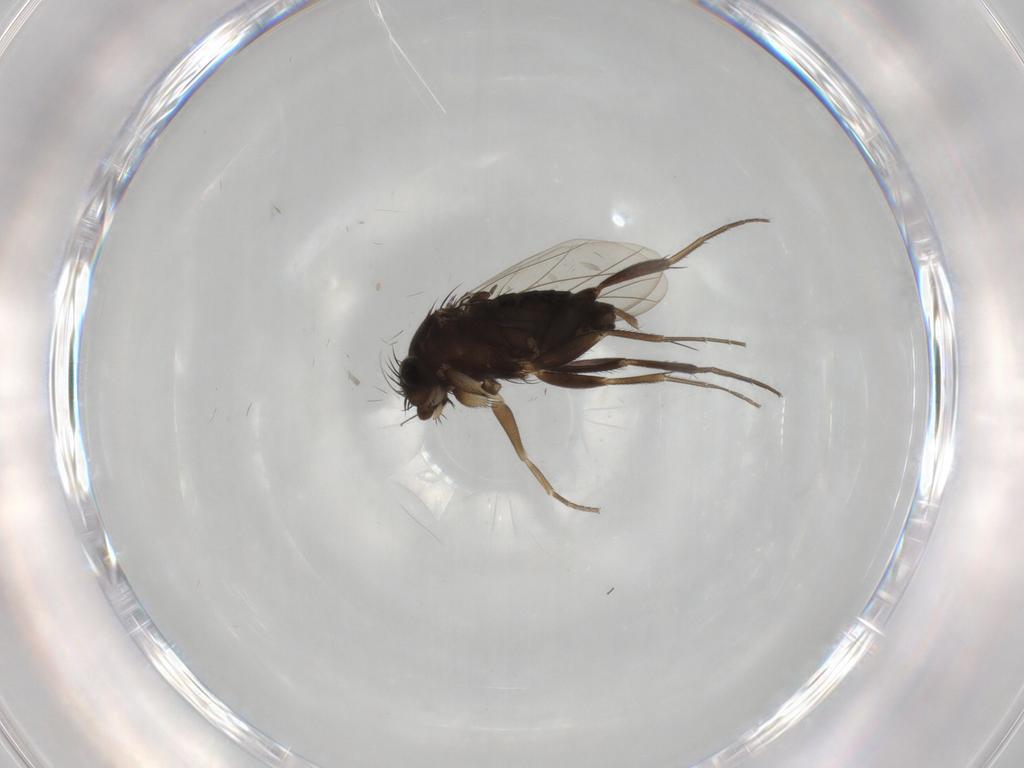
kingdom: Animalia
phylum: Arthropoda
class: Insecta
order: Diptera
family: Phoridae
